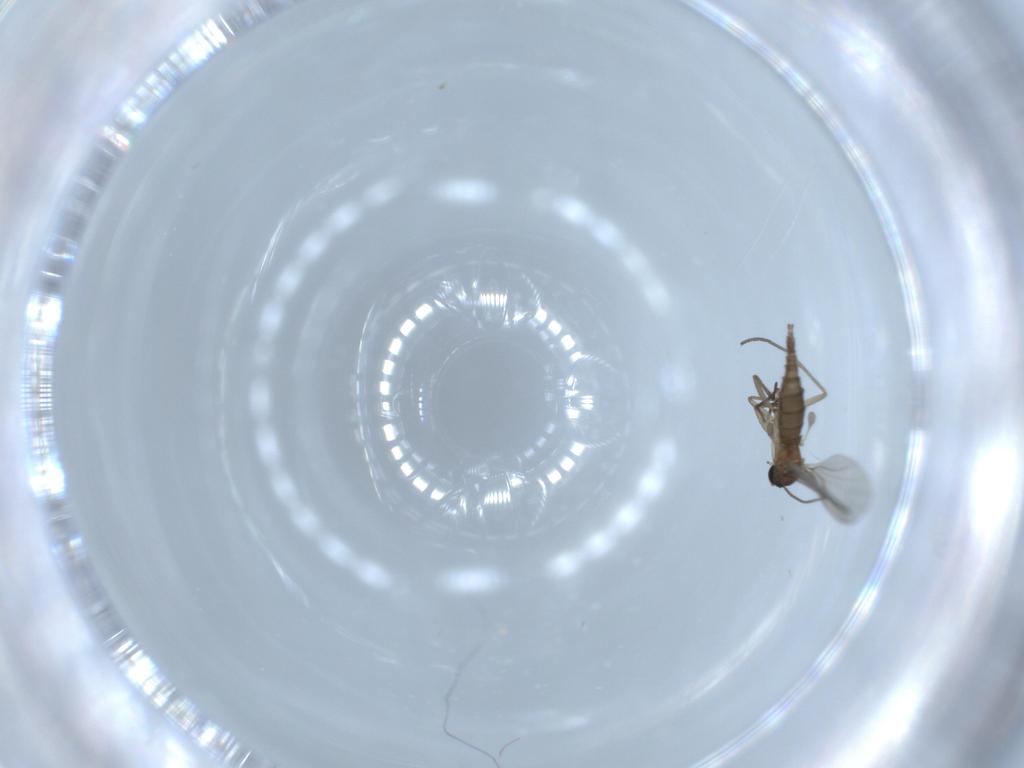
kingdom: Animalia
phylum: Arthropoda
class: Insecta
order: Diptera
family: Sciaridae
